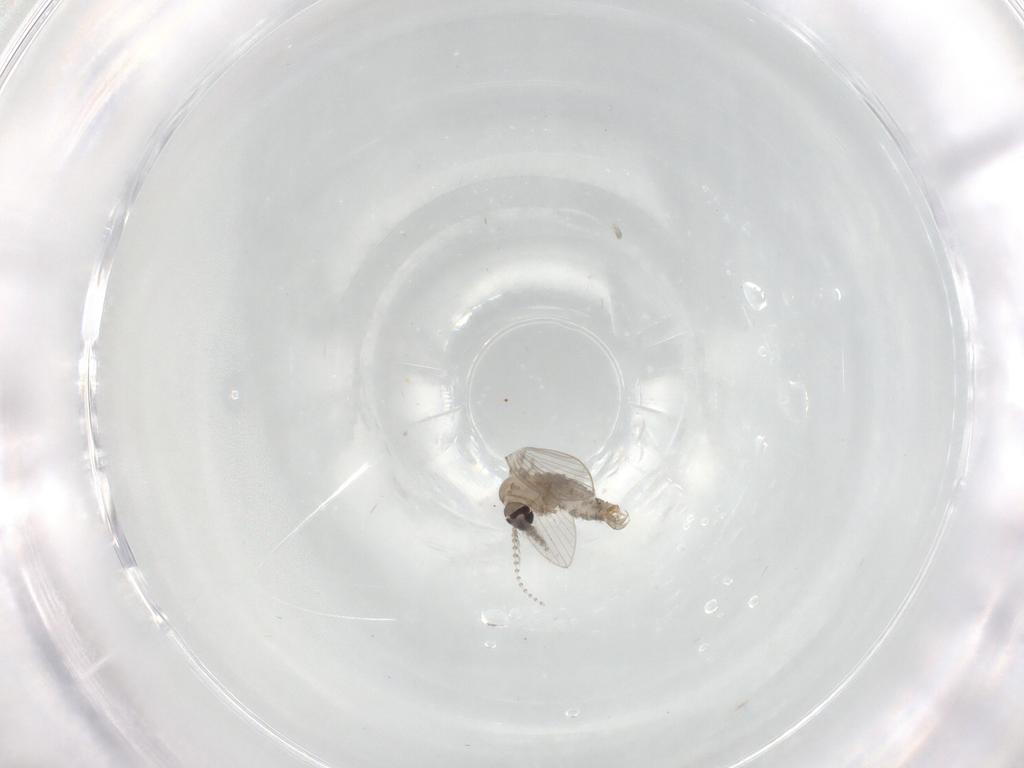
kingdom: Animalia
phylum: Arthropoda
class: Insecta
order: Diptera
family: Psychodidae
